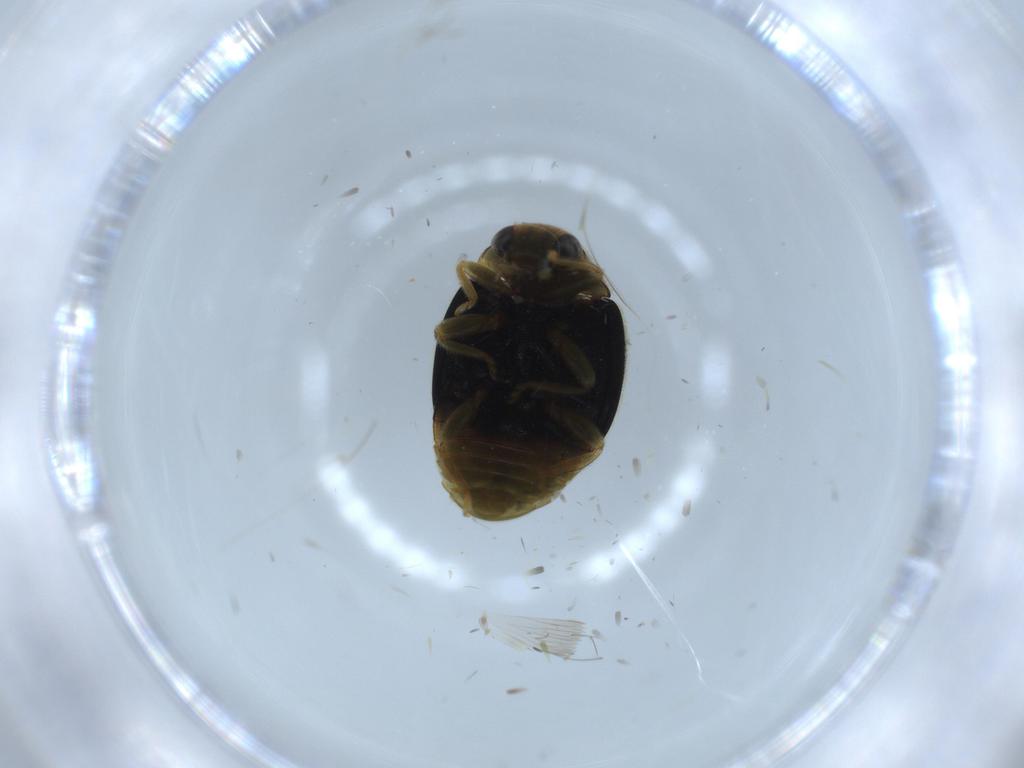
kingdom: Animalia
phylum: Arthropoda
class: Insecta
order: Coleoptera
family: Coccinellidae
